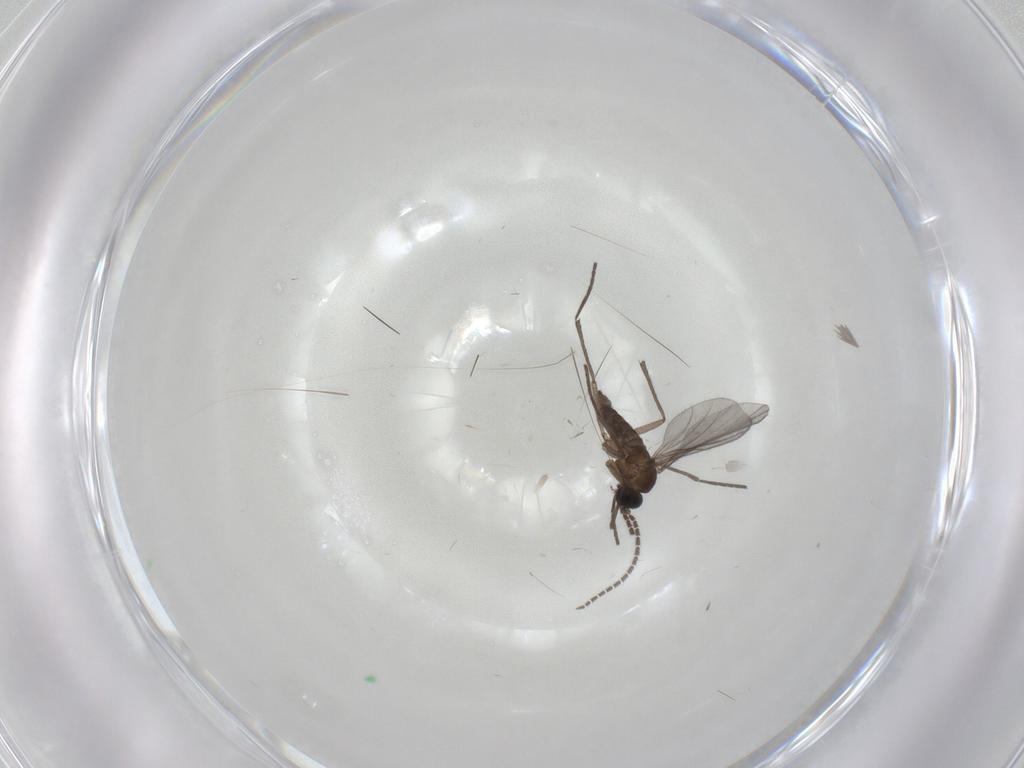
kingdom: Animalia
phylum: Arthropoda
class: Insecta
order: Diptera
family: Sciaridae
